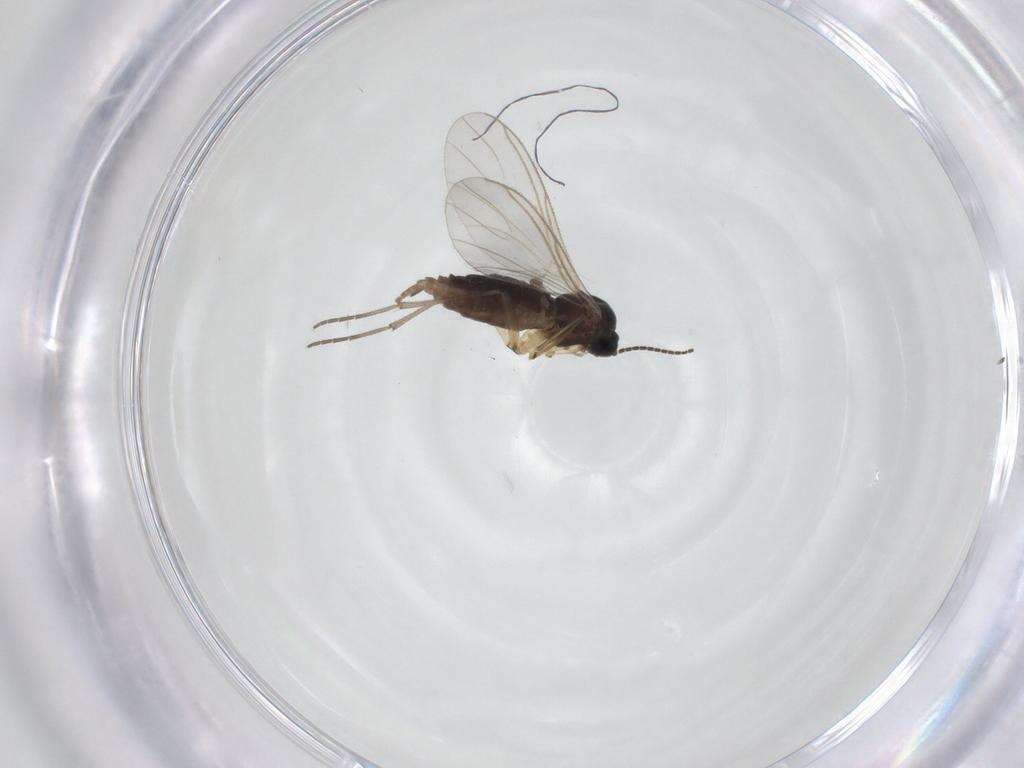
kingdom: Animalia
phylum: Arthropoda
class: Insecta
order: Diptera
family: Sciaridae
